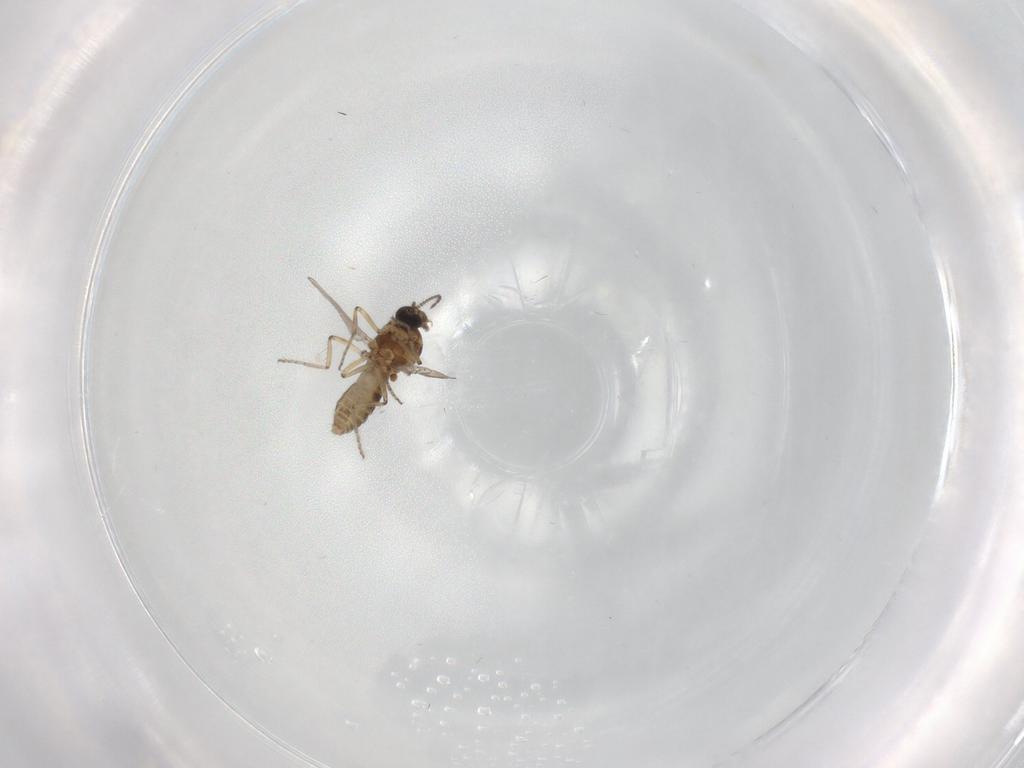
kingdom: Animalia
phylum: Arthropoda
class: Insecta
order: Diptera
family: Ceratopogonidae
